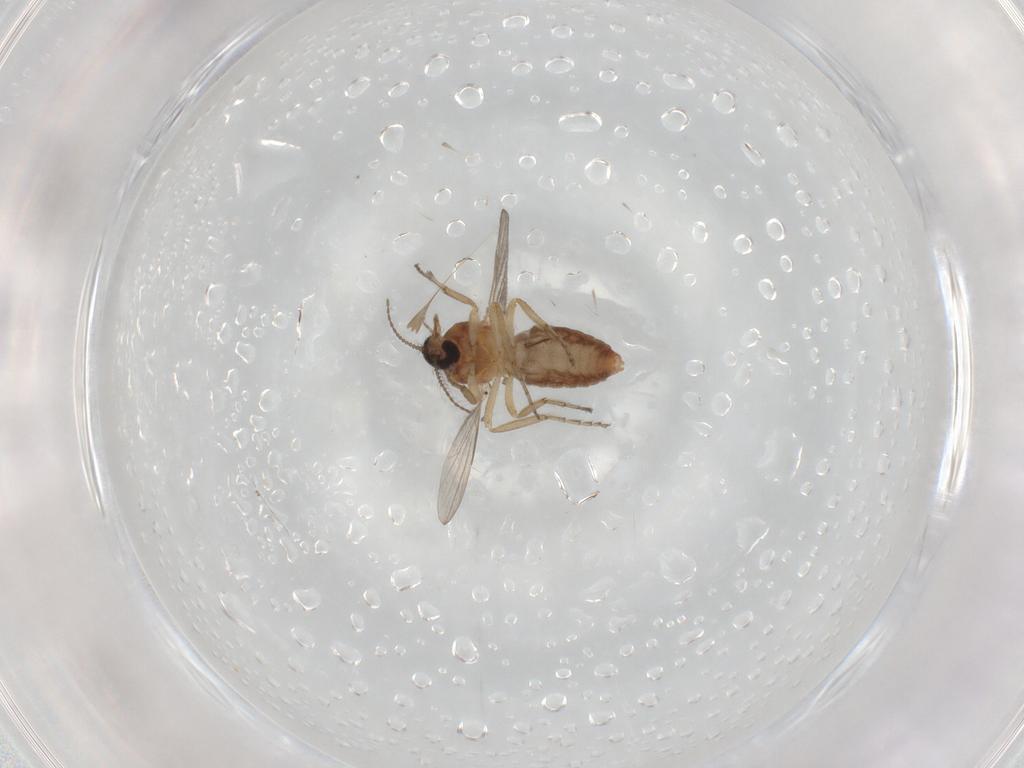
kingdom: Animalia
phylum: Arthropoda
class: Insecta
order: Diptera
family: Ceratopogonidae
